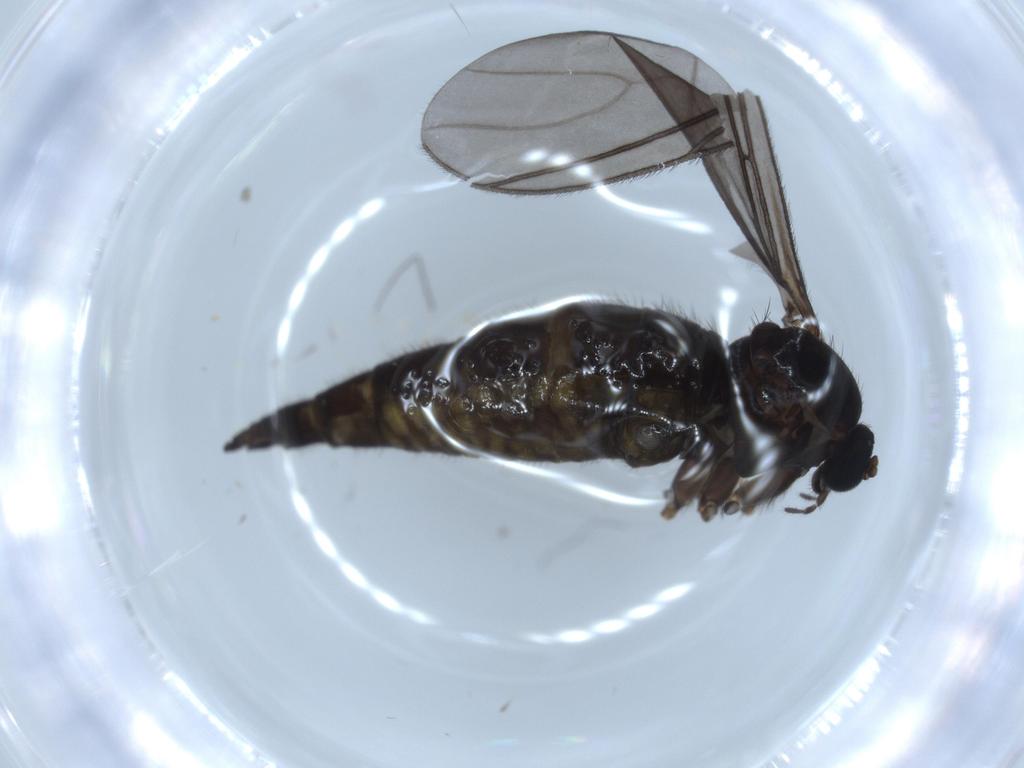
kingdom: Animalia
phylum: Arthropoda
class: Insecta
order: Diptera
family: Sciaridae
